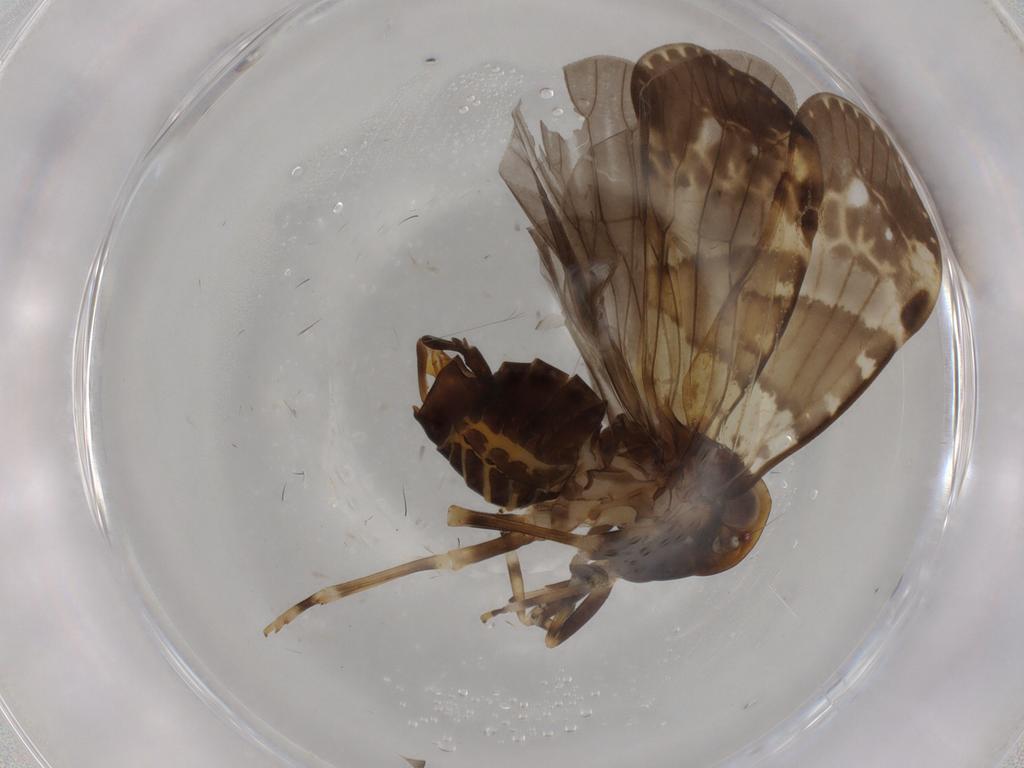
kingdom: Animalia
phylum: Arthropoda
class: Insecta
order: Hemiptera
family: Cixiidae
